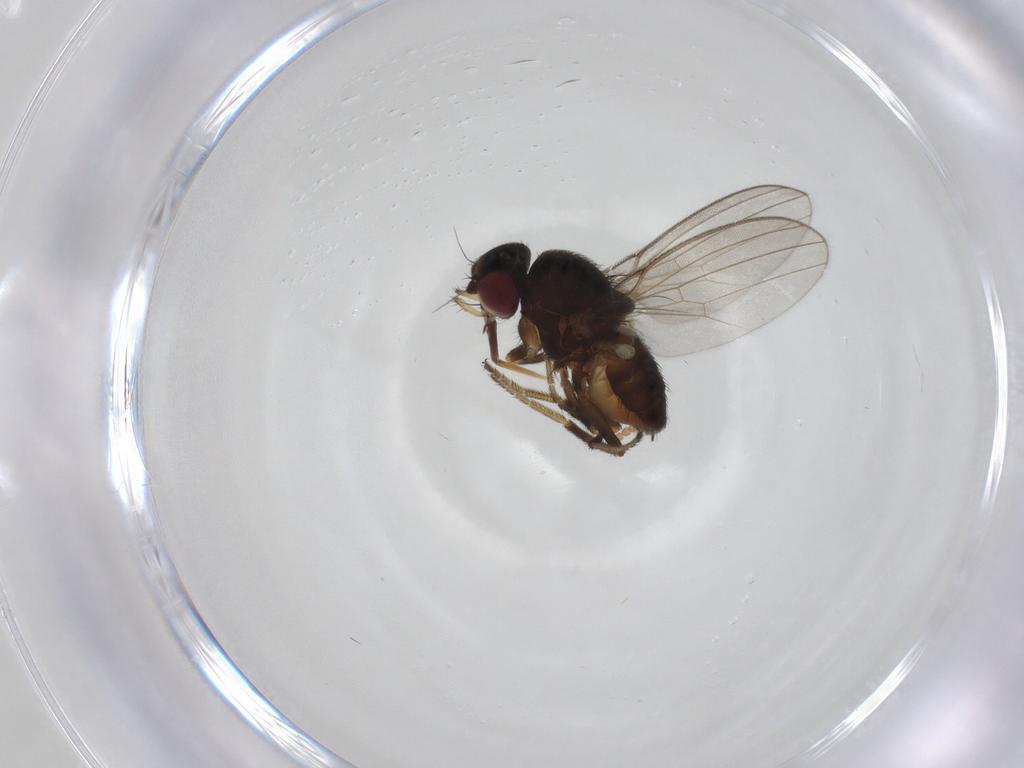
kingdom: Animalia
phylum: Arthropoda
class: Insecta
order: Diptera
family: Milichiidae
